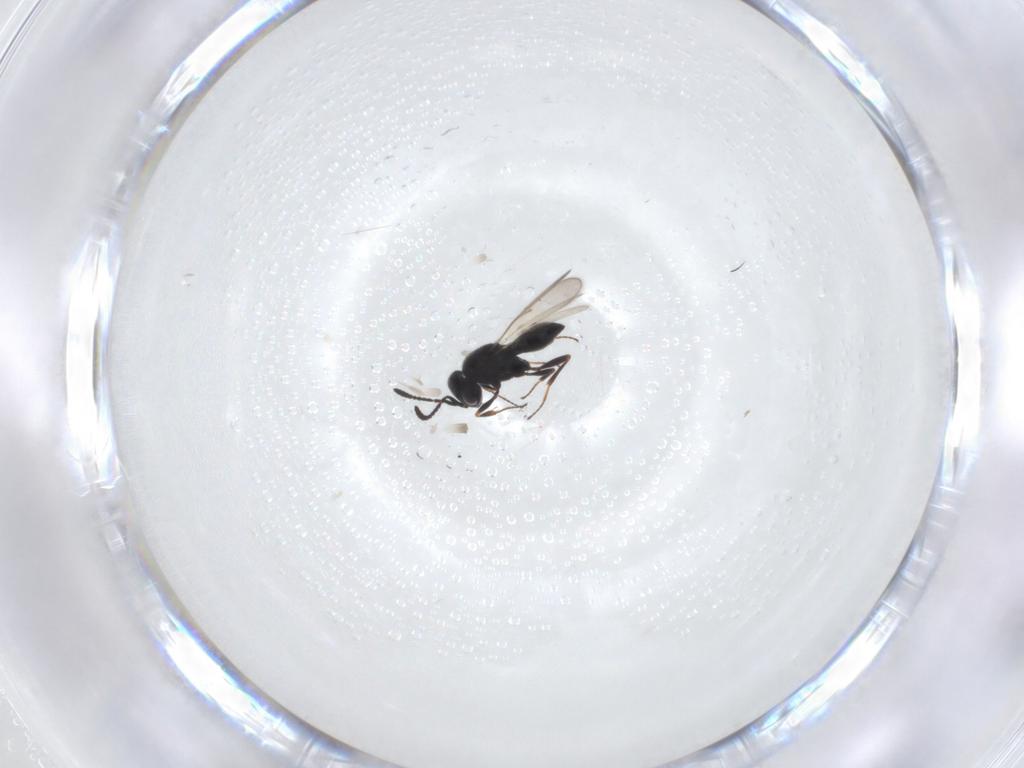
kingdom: Animalia
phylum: Arthropoda
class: Insecta
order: Hymenoptera
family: Scelionidae
